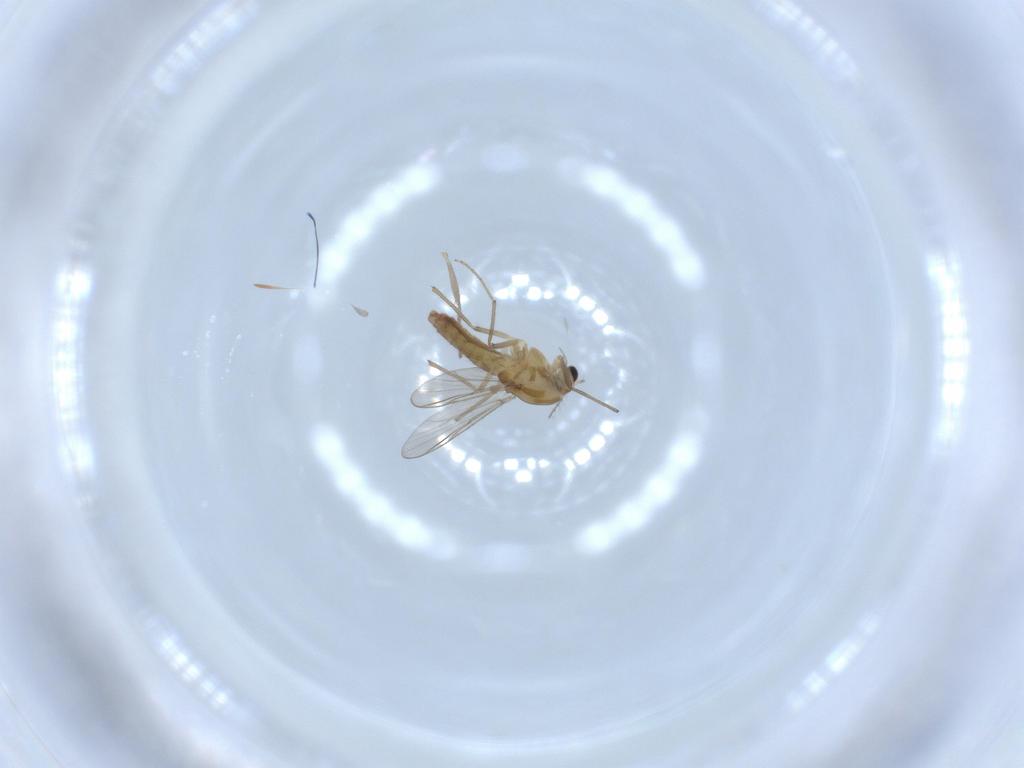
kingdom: Animalia
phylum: Arthropoda
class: Insecta
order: Diptera
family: Chironomidae
